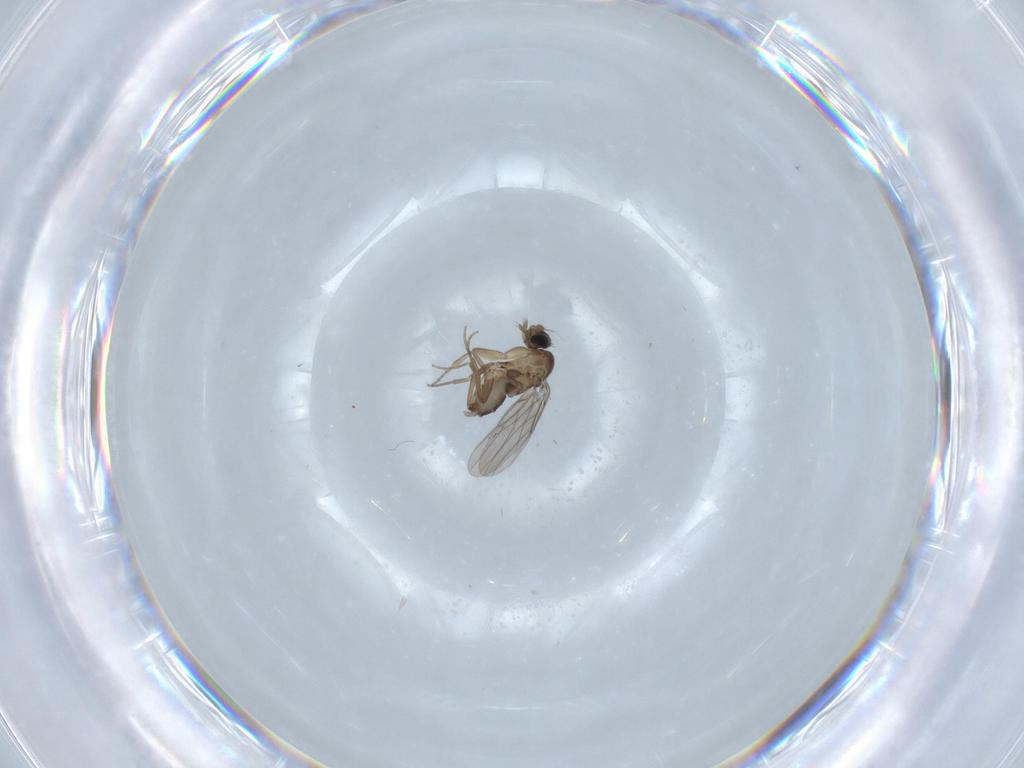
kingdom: Animalia
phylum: Arthropoda
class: Insecta
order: Diptera
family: Phoridae
